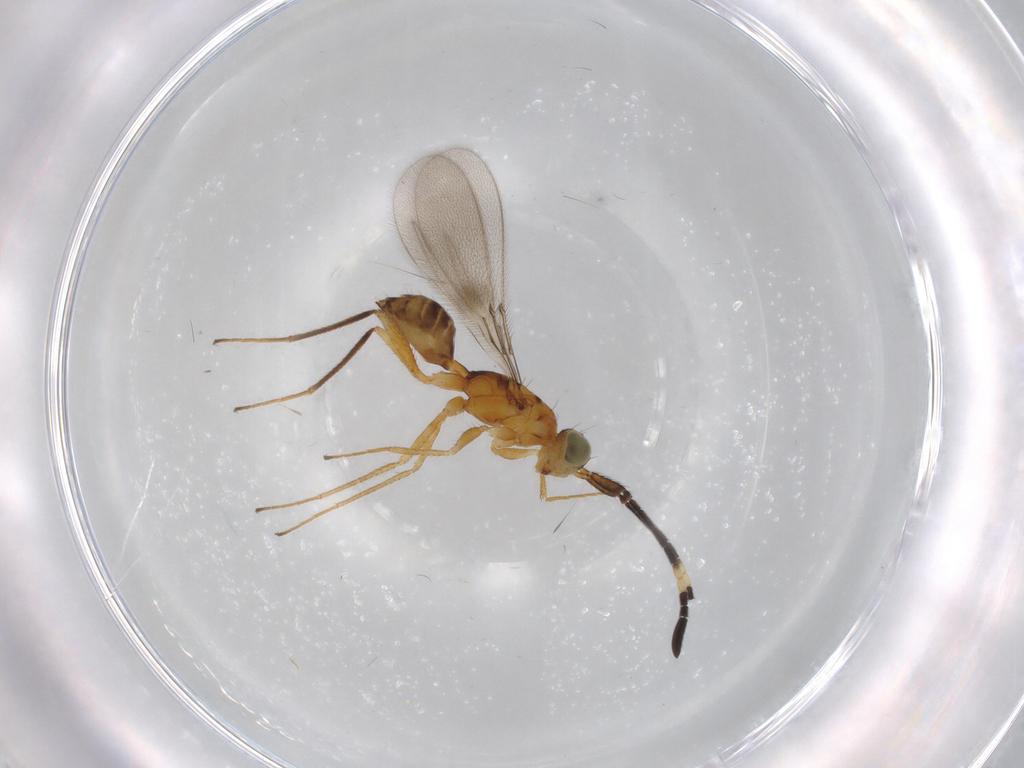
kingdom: Animalia
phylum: Arthropoda
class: Insecta
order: Hymenoptera
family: Mymaridae
